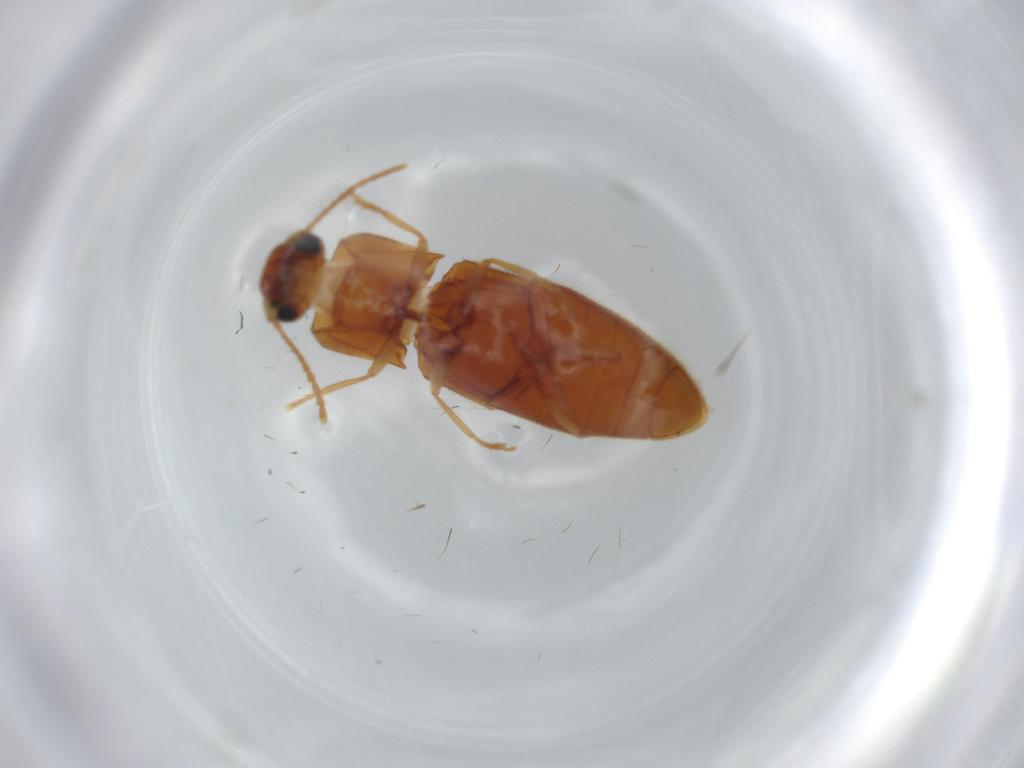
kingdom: Animalia
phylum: Arthropoda
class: Insecta
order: Coleoptera
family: Elateridae
